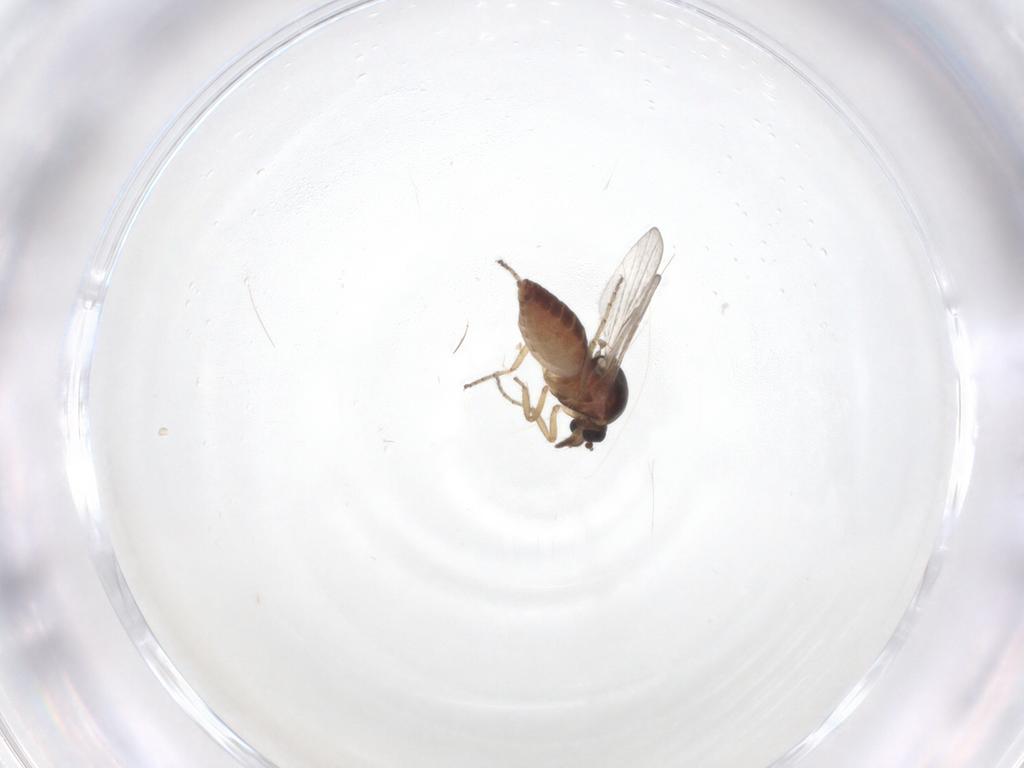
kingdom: Animalia
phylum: Arthropoda
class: Insecta
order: Diptera
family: Ceratopogonidae
